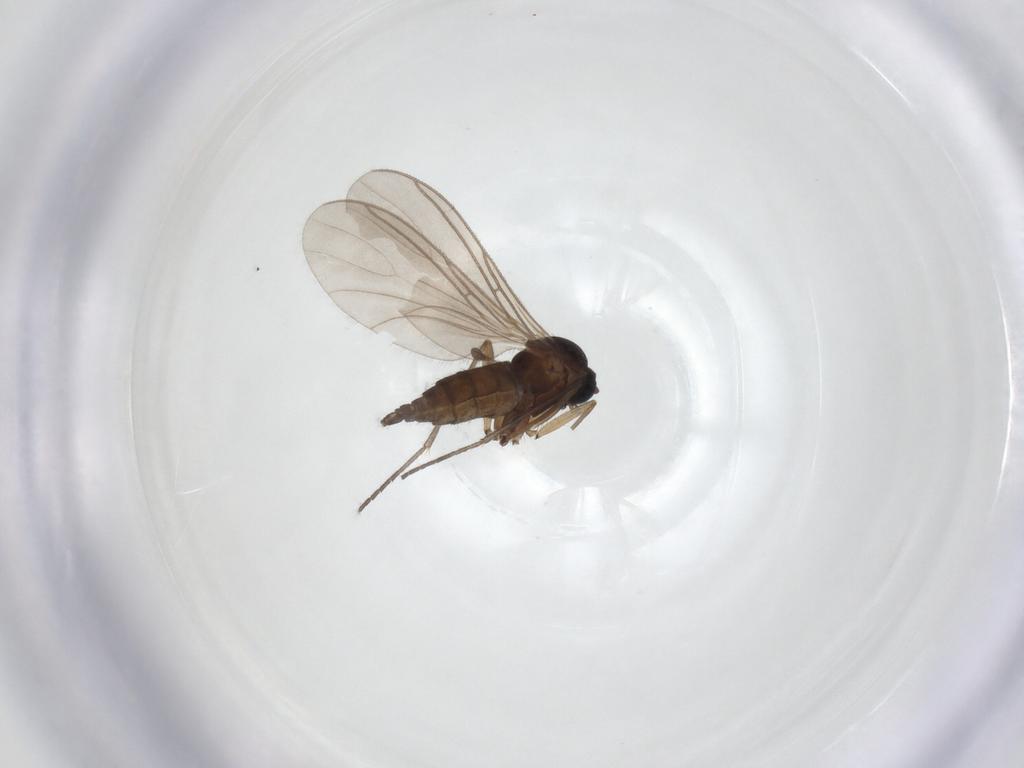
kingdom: Animalia
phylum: Arthropoda
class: Insecta
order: Diptera
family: Sciaridae
